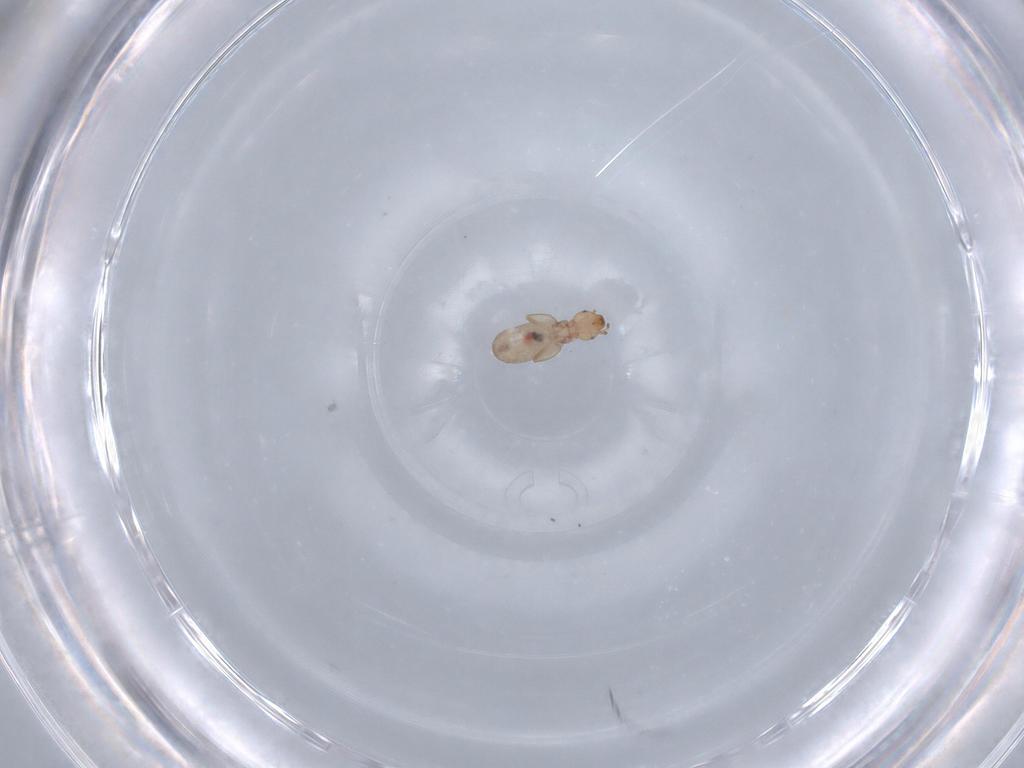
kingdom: Animalia
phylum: Arthropoda
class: Insecta
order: Psocodea
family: Liposcelididae
